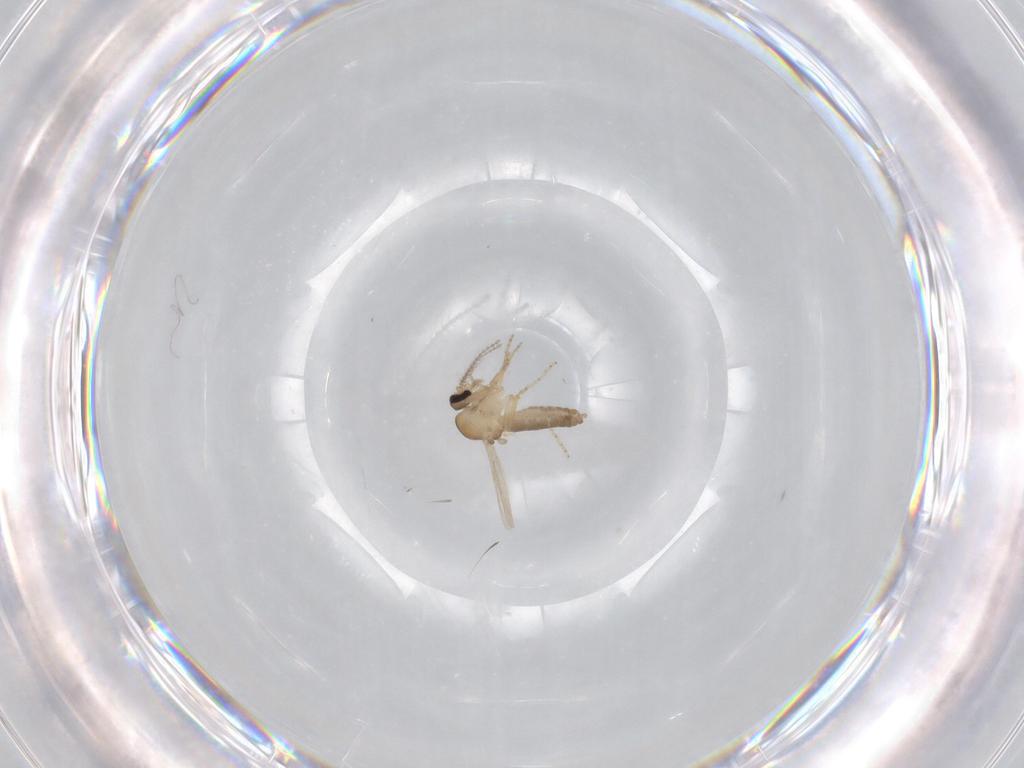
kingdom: Animalia
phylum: Arthropoda
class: Insecta
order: Diptera
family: Ceratopogonidae
